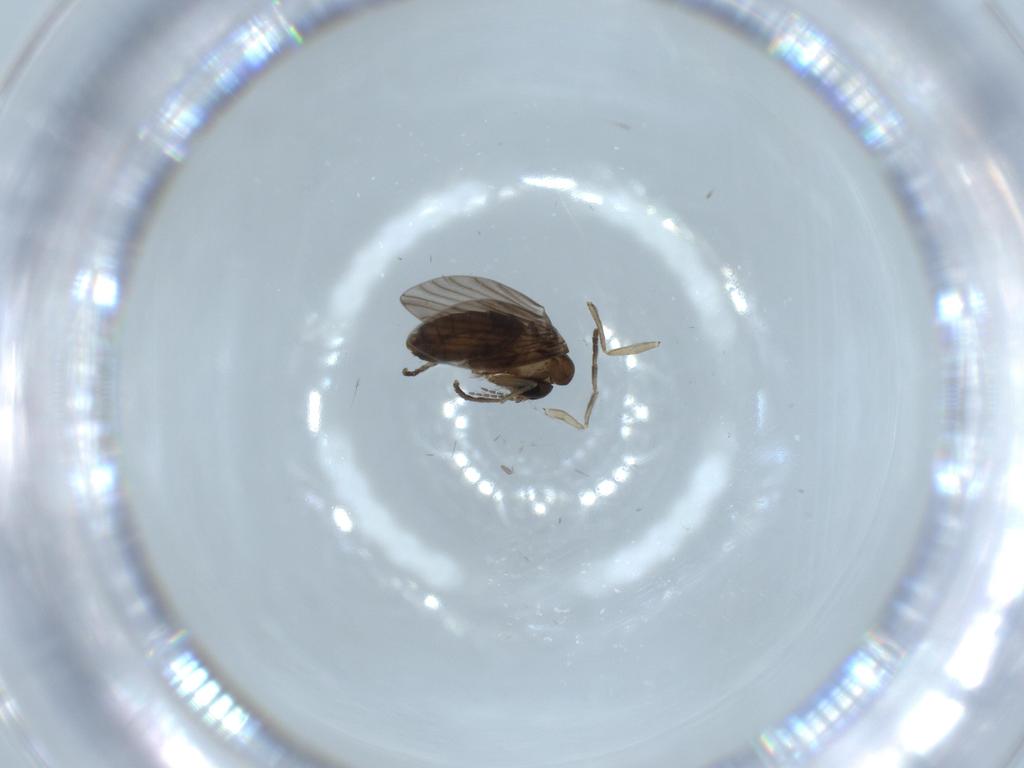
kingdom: Animalia
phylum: Arthropoda
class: Insecta
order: Diptera
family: Psychodidae
